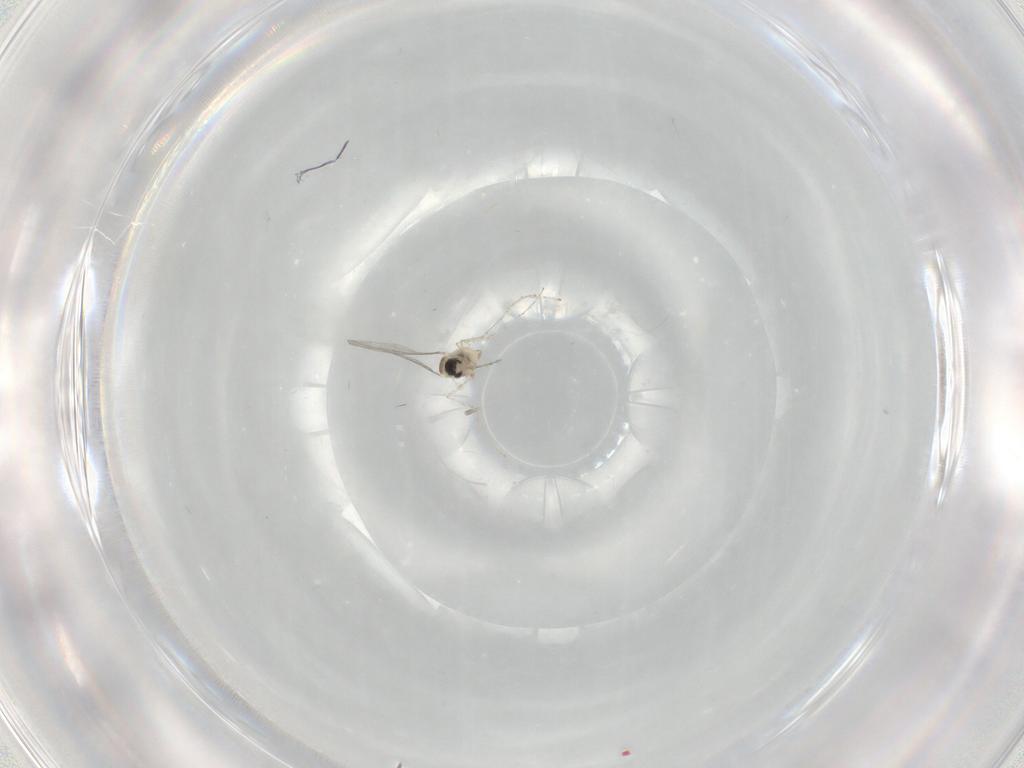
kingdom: Animalia
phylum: Arthropoda
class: Insecta
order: Diptera
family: Cecidomyiidae
